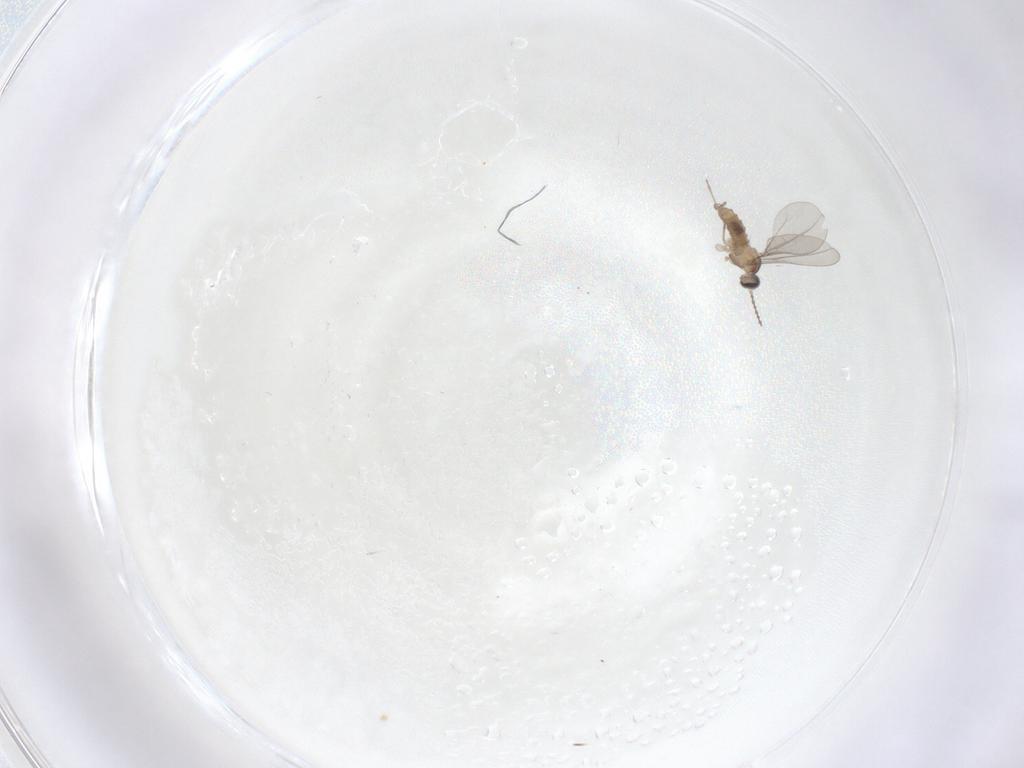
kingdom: Animalia
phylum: Arthropoda
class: Insecta
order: Diptera
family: Cecidomyiidae
